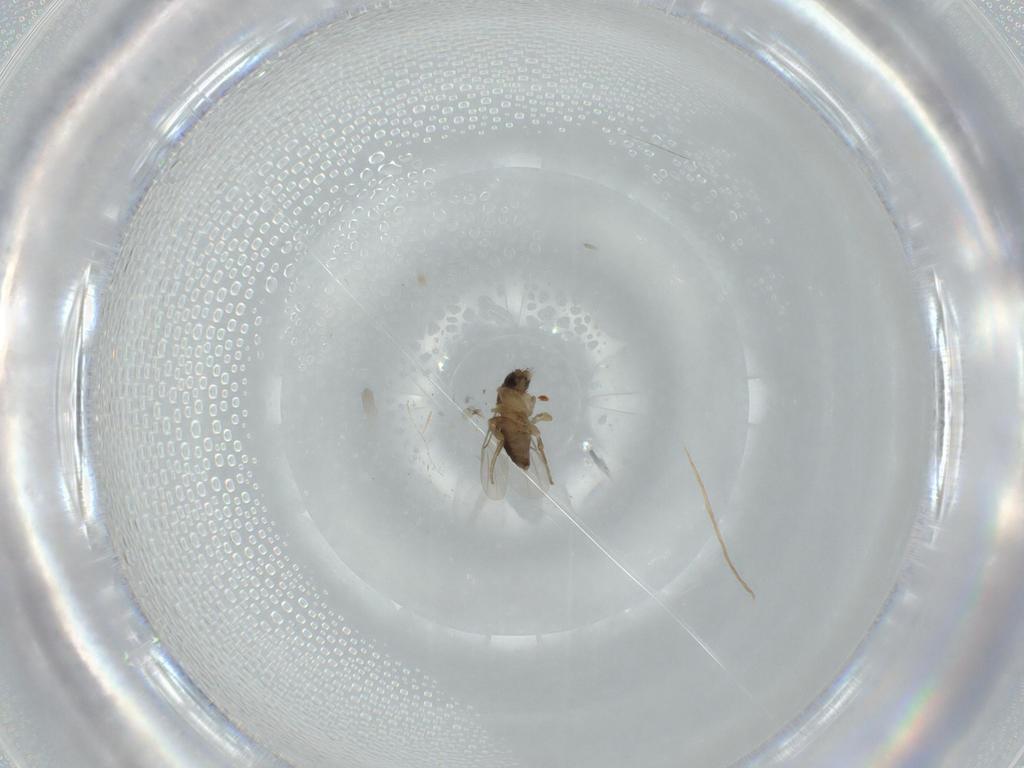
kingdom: Animalia
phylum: Arthropoda
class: Insecta
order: Diptera
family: Phoridae
